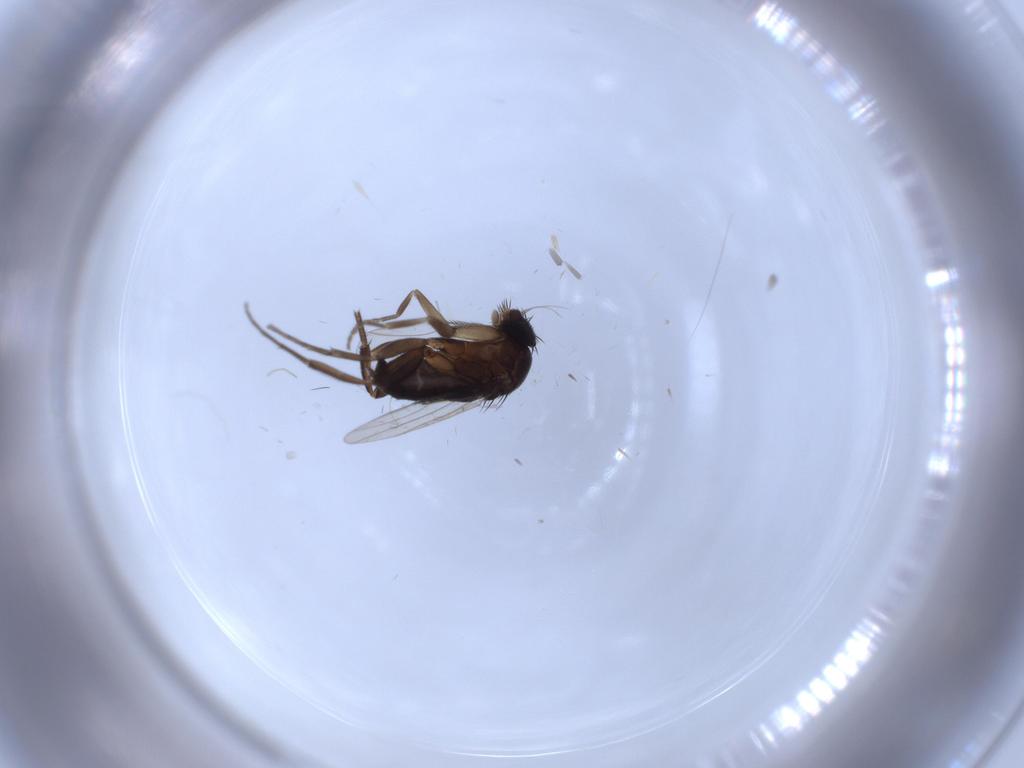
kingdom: Animalia
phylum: Arthropoda
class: Insecta
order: Diptera
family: Phoridae
